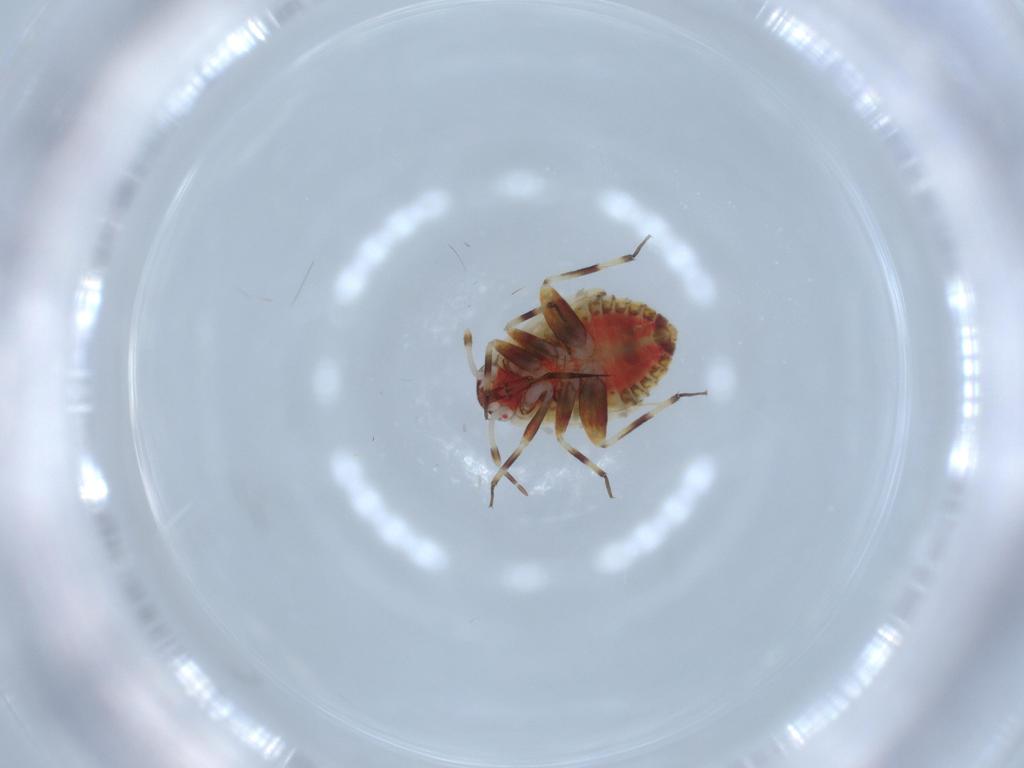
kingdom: Animalia
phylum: Arthropoda
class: Insecta
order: Hemiptera
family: Miridae
